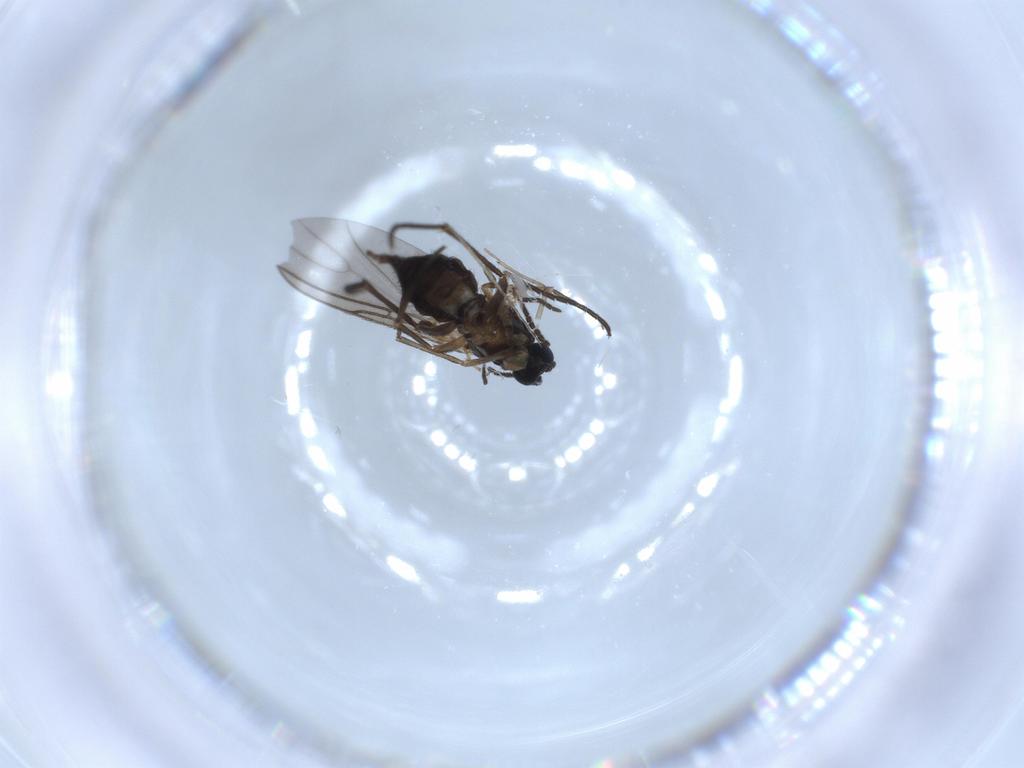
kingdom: Animalia
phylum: Arthropoda
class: Insecta
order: Diptera
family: Sciaridae
